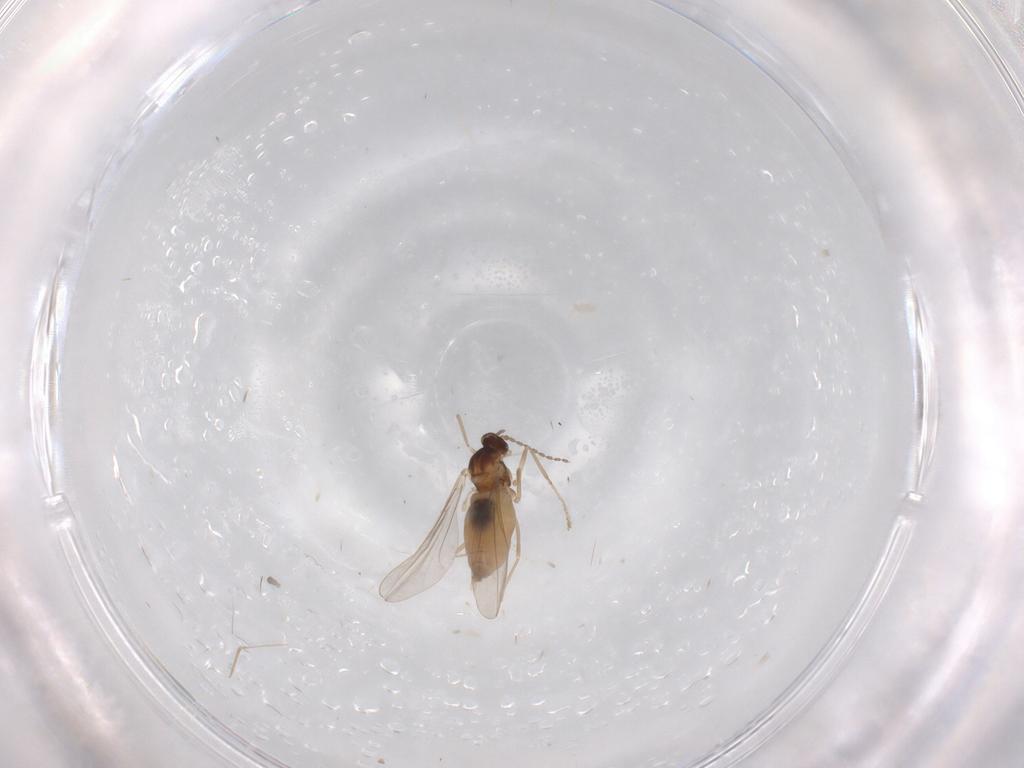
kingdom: Animalia
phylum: Arthropoda
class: Insecta
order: Diptera
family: Cecidomyiidae
